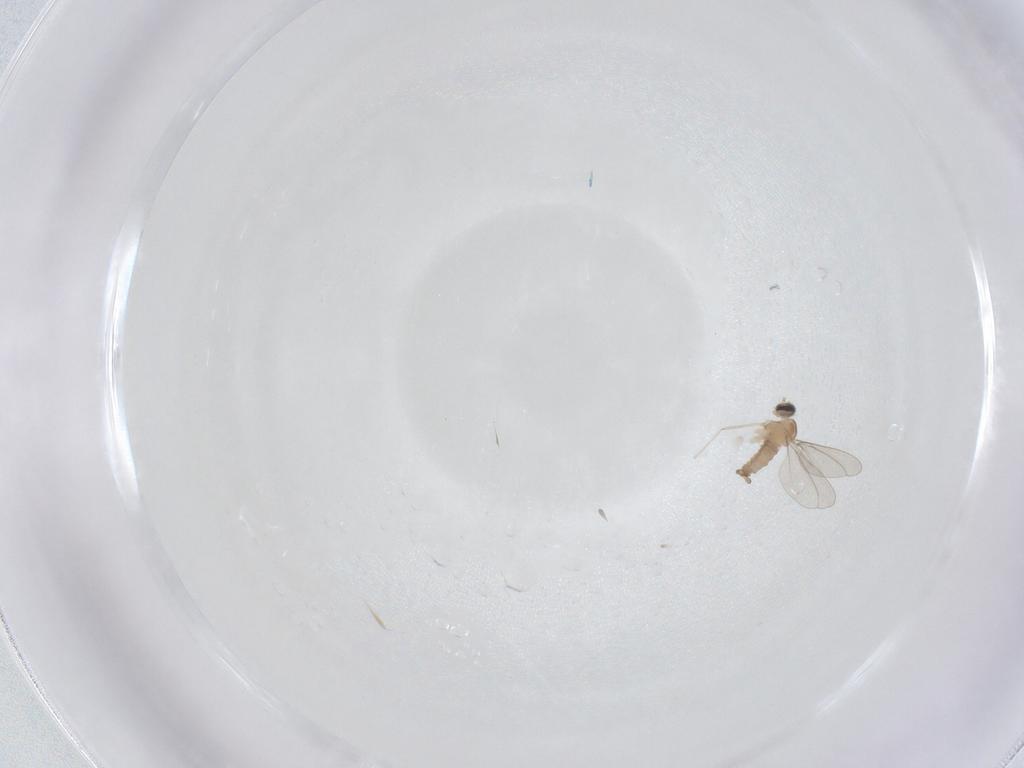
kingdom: Animalia
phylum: Arthropoda
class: Insecta
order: Diptera
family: Cecidomyiidae
